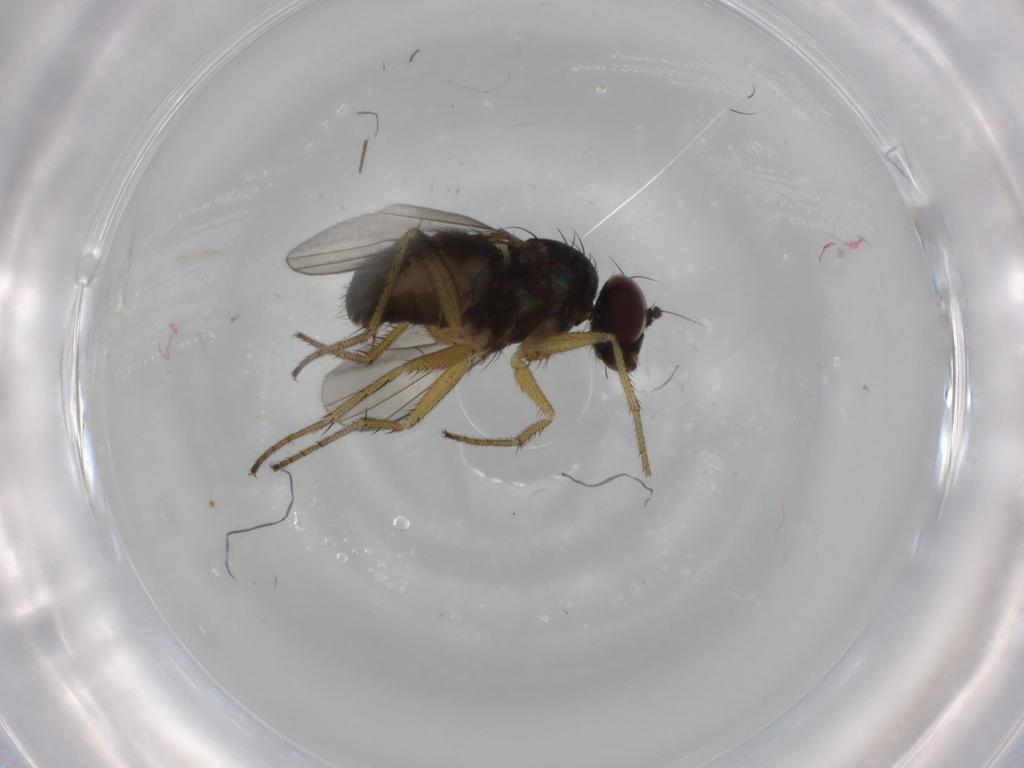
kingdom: Animalia
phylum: Arthropoda
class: Insecta
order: Diptera
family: Dolichopodidae
